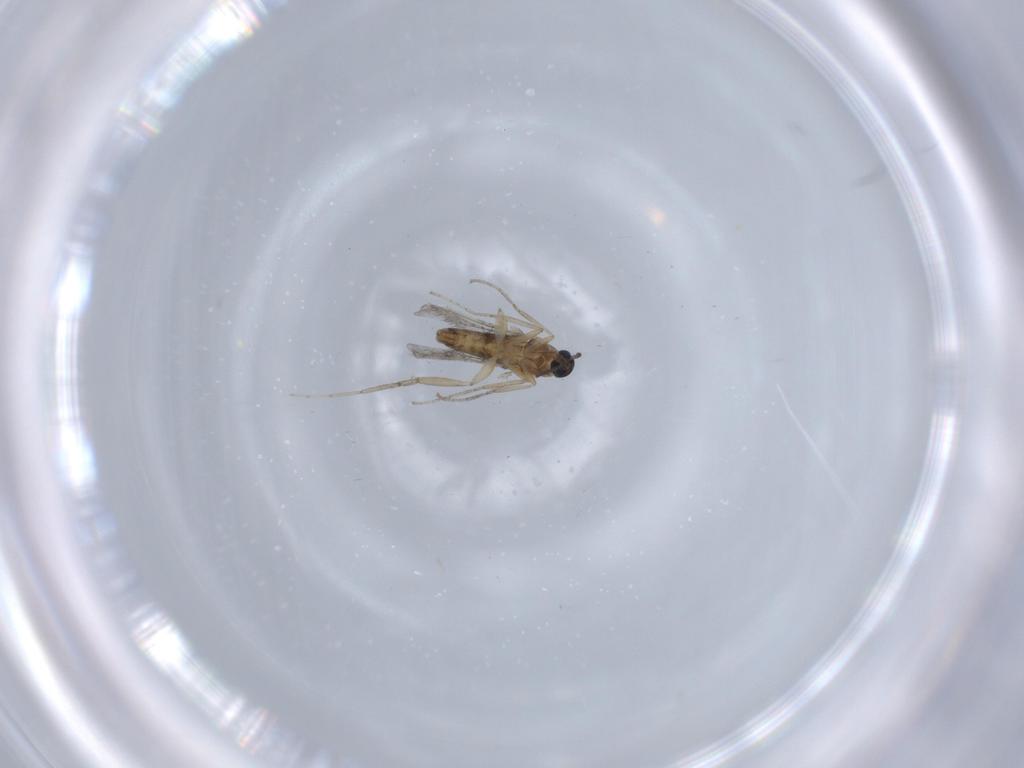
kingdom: Animalia
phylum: Arthropoda
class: Insecta
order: Diptera
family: Cecidomyiidae
